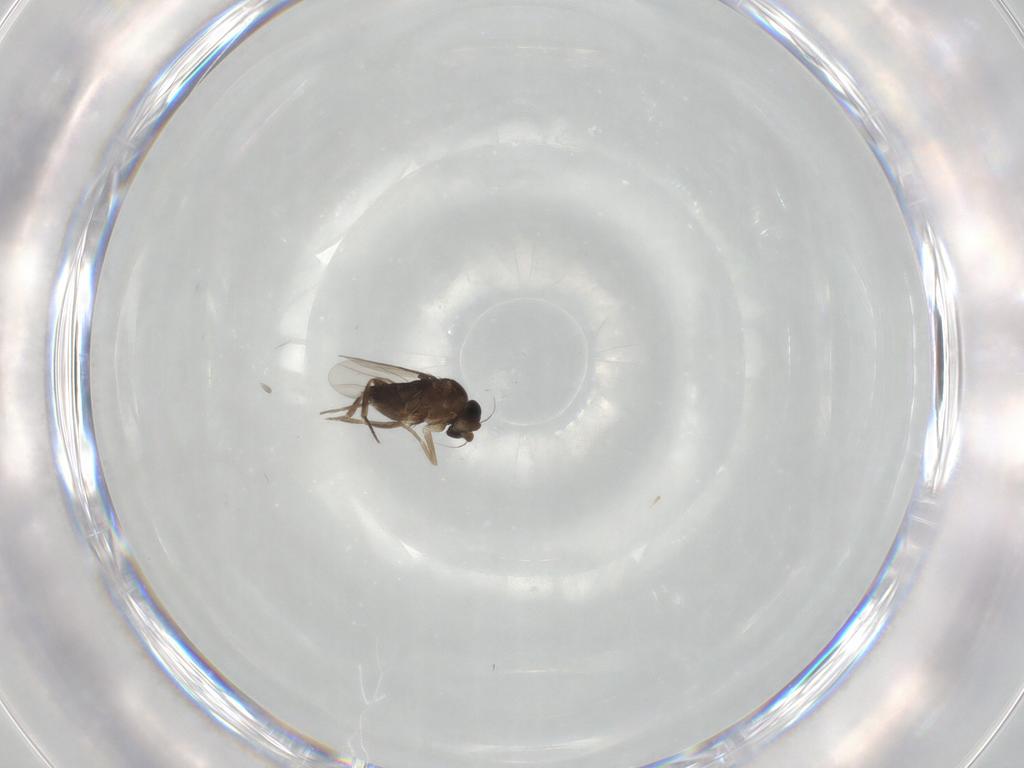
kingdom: Animalia
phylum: Arthropoda
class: Insecta
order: Diptera
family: Phoridae
